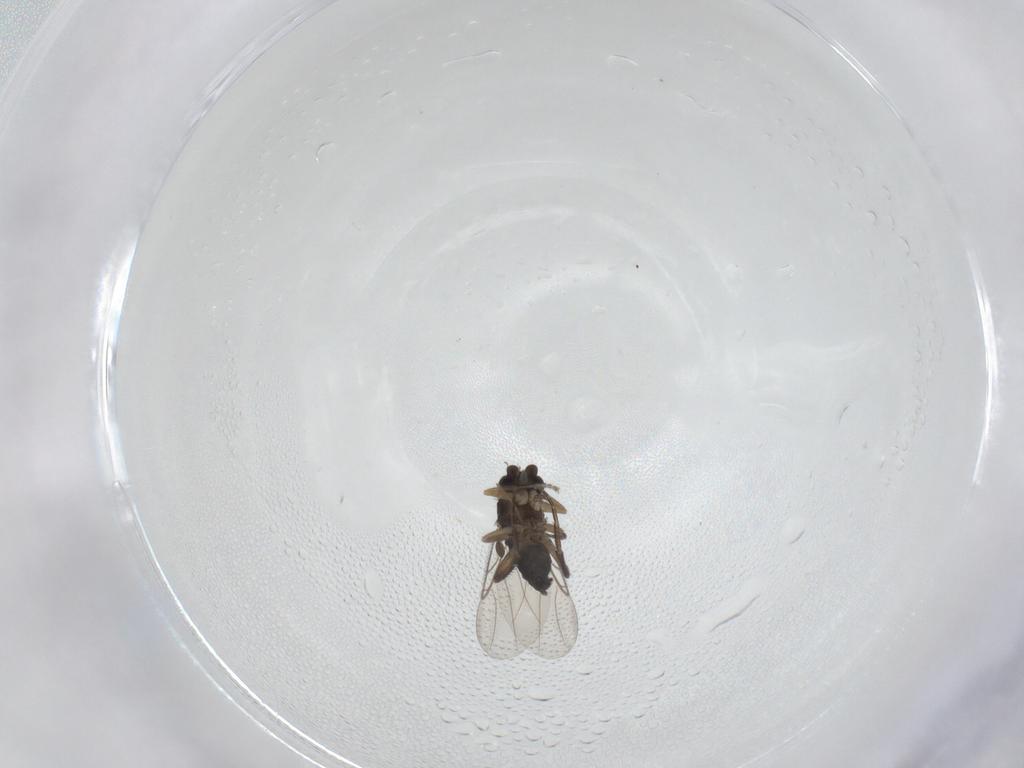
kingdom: Animalia
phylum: Arthropoda
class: Insecta
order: Diptera
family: Phoridae
